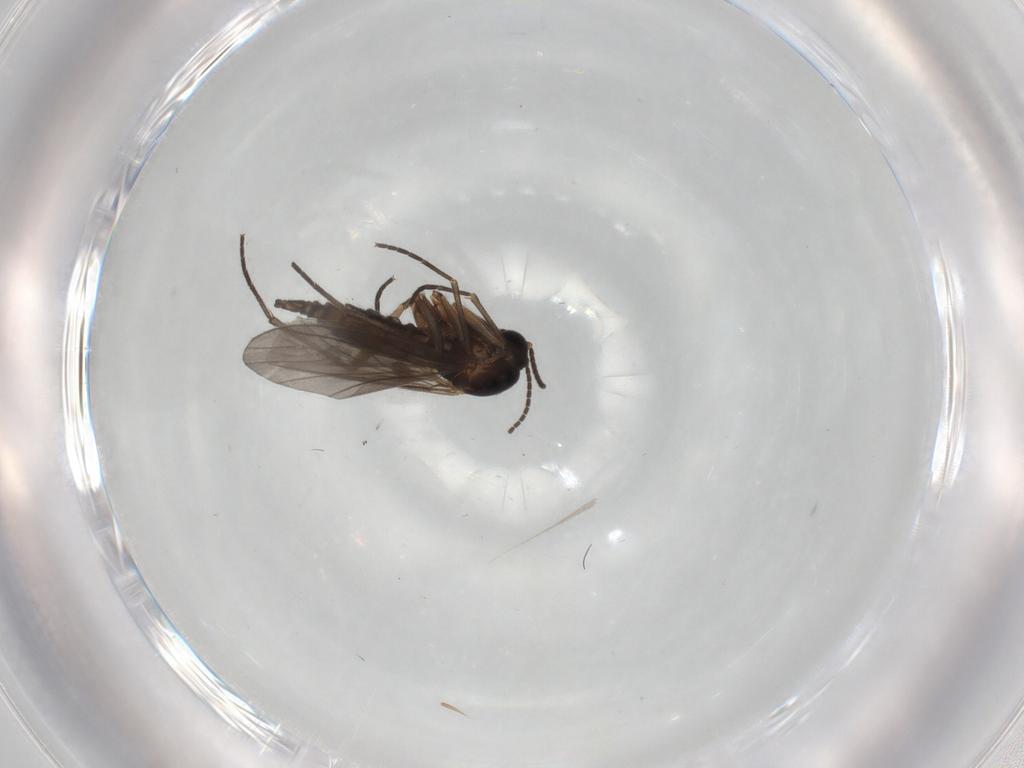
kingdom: Animalia
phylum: Arthropoda
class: Insecta
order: Diptera
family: Sciaridae
